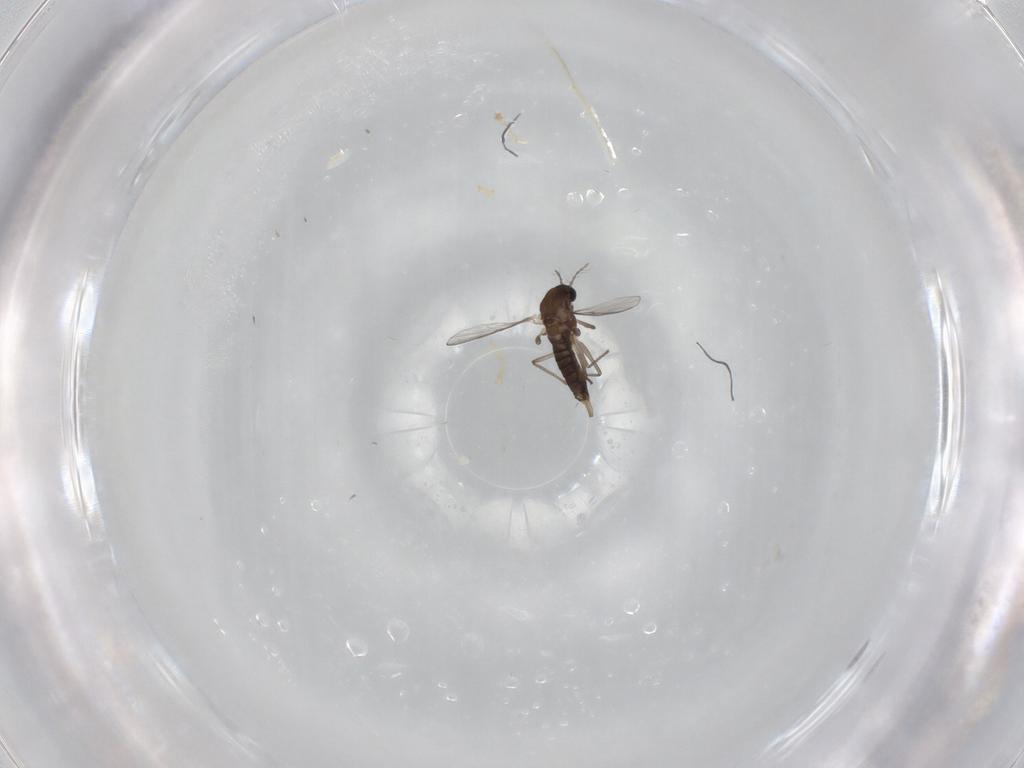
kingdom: Animalia
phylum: Arthropoda
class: Insecta
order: Diptera
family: Chironomidae
